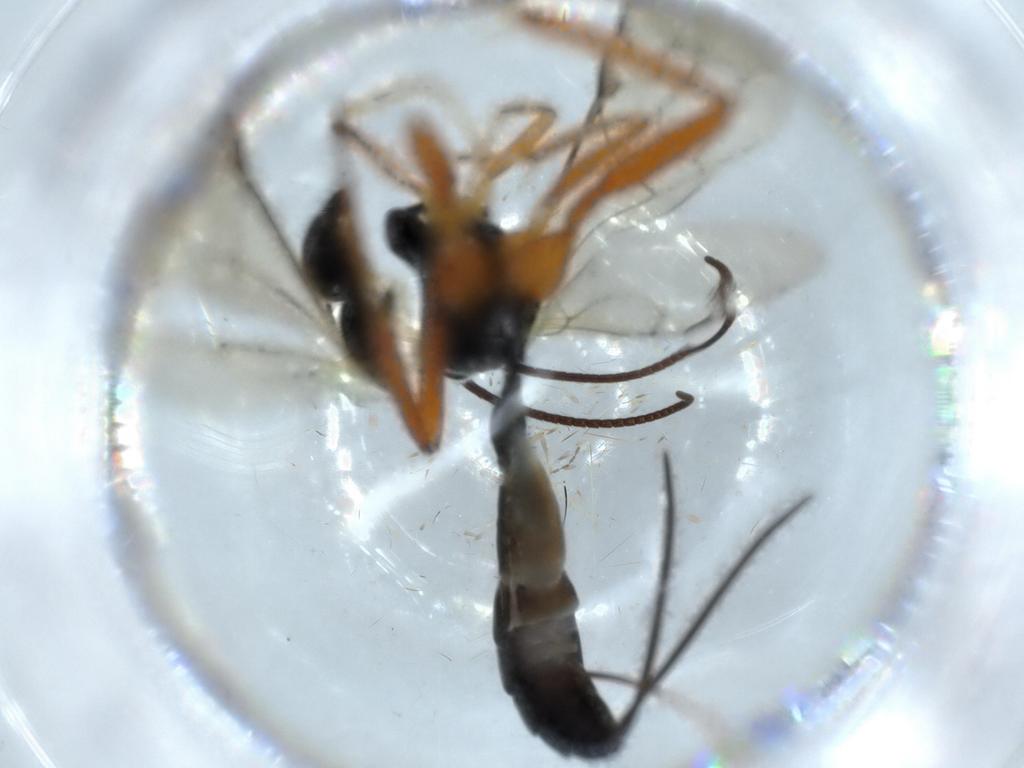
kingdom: Animalia
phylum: Arthropoda
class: Insecta
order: Hymenoptera
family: Ichneumonidae
